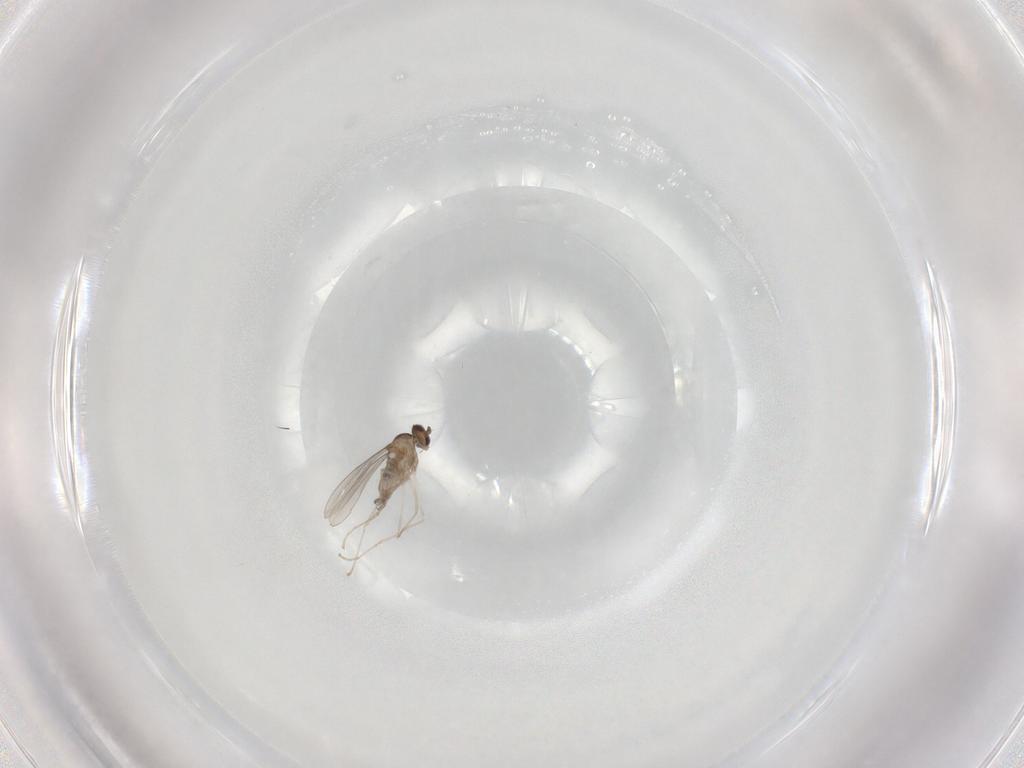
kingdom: Animalia
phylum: Arthropoda
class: Insecta
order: Diptera
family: Cecidomyiidae
